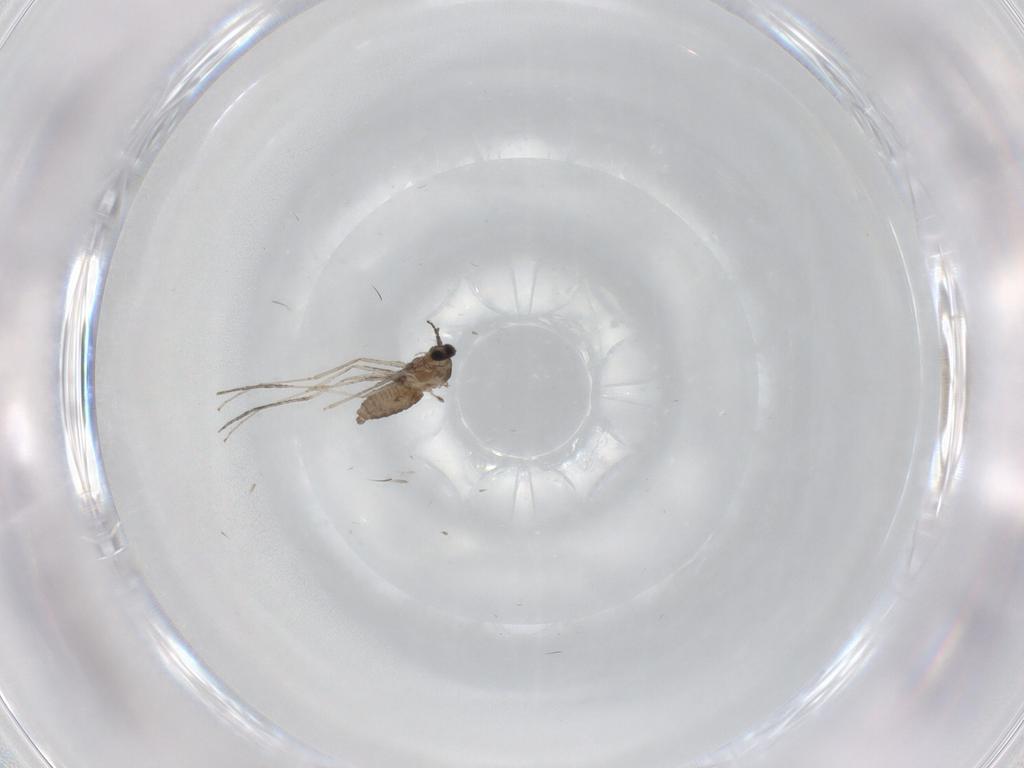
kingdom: Animalia
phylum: Arthropoda
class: Insecta
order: Diptera
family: Cecidomyiidae
